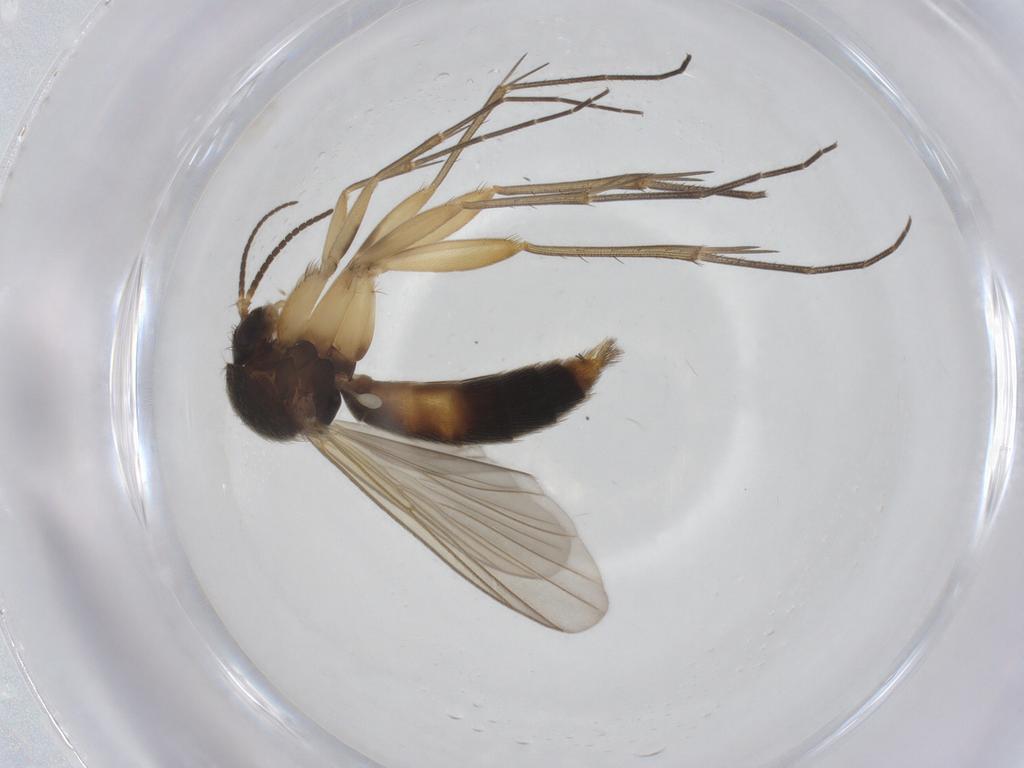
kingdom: Animalia
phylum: Arthropoda
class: Insecta
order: Diptera
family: Mycetophilidae
